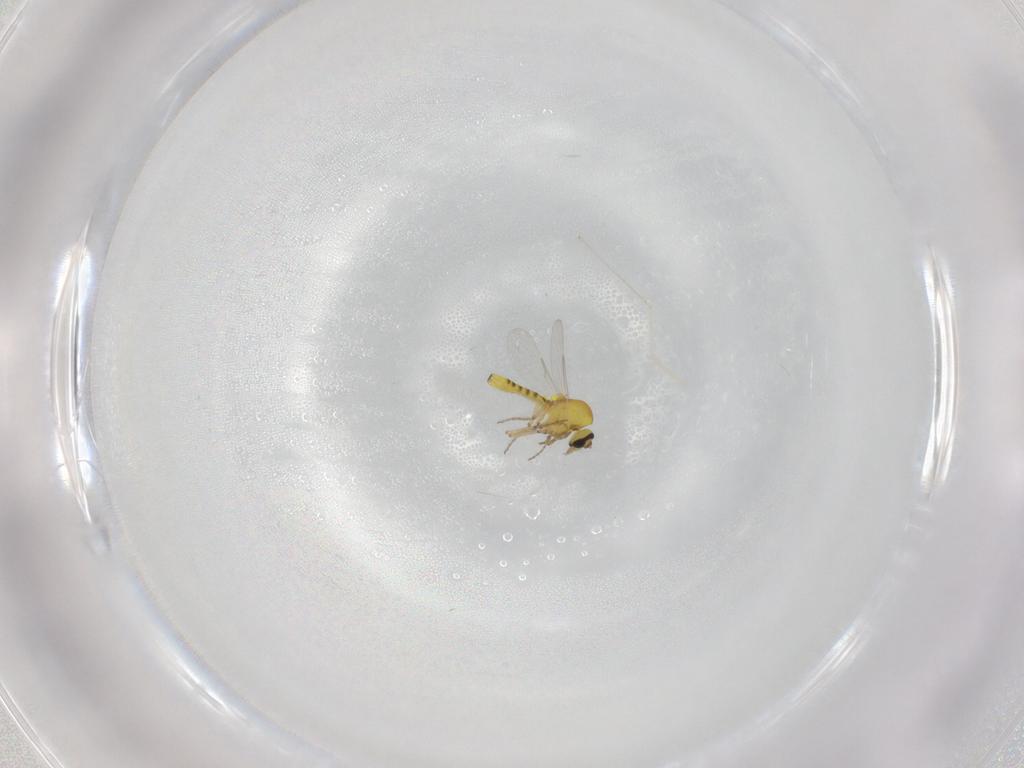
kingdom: Animalia
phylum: Arthropoda
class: Insecta
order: Diptera
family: Ceratopogonidae
